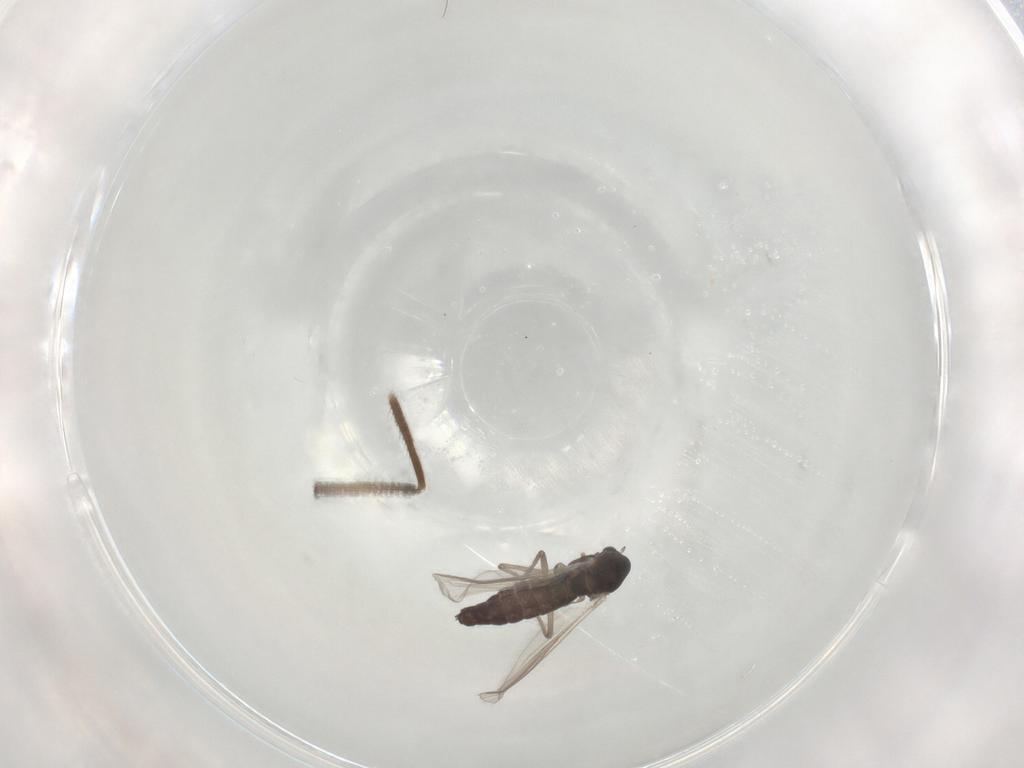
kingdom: Animalia
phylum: Arthropoda
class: Insecta
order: Diptera
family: Chironomidae
